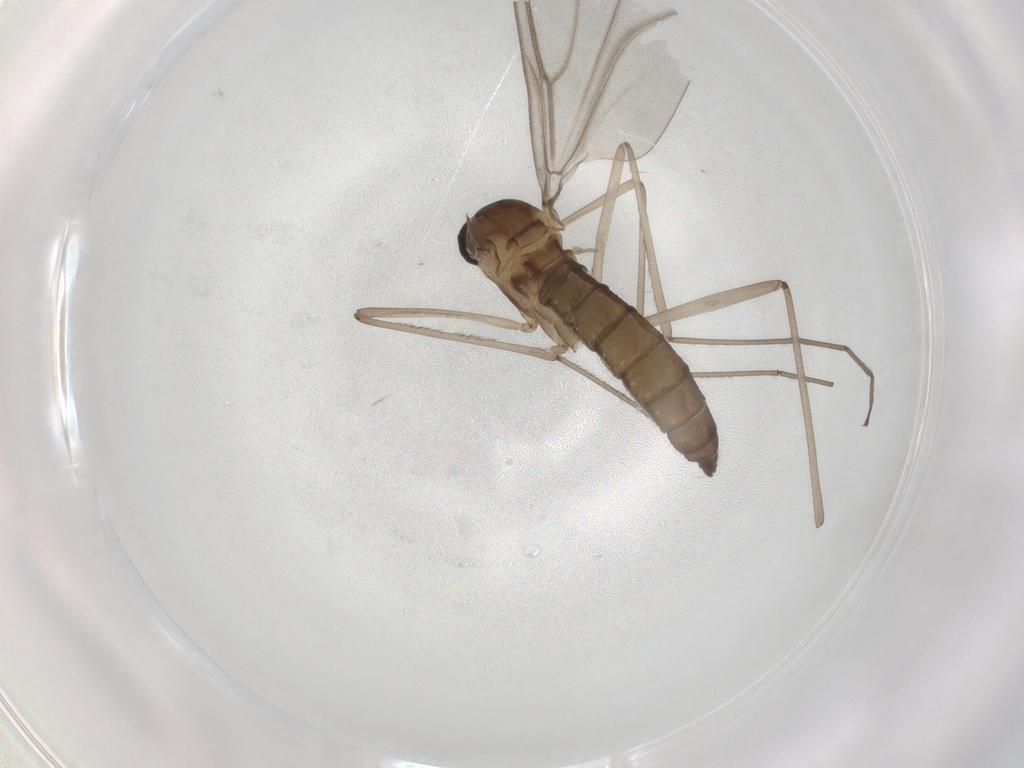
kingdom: Animalia
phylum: Arthropoda
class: Insecta
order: Diptera
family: Cecidomyiidae
